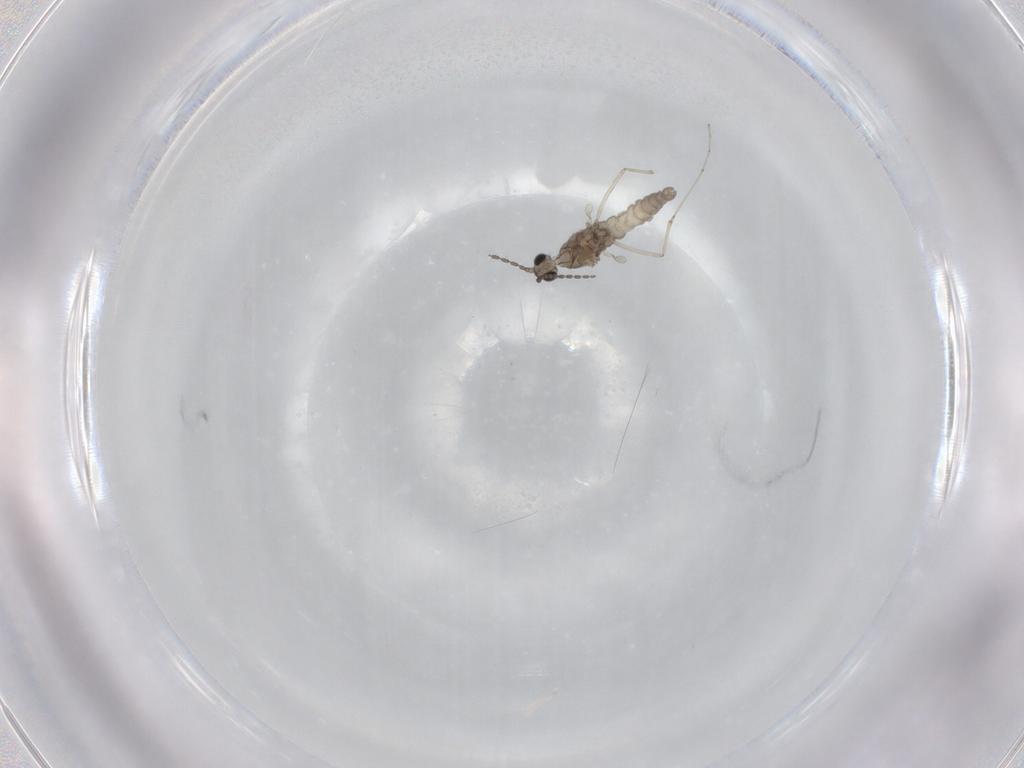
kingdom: Animalia
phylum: Arthropoda
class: Insecta
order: Diptera
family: Cecidomyiidae
